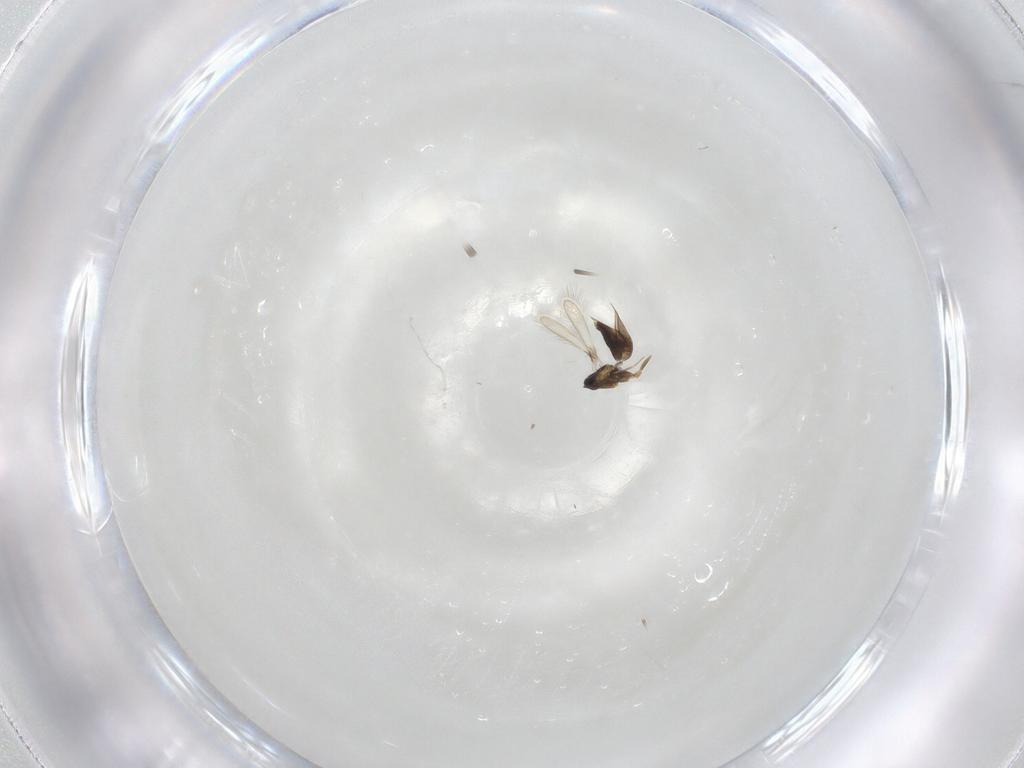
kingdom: Animalia
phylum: Arthropoda
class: Insecta
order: Hymenoptera
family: Mymaridae
